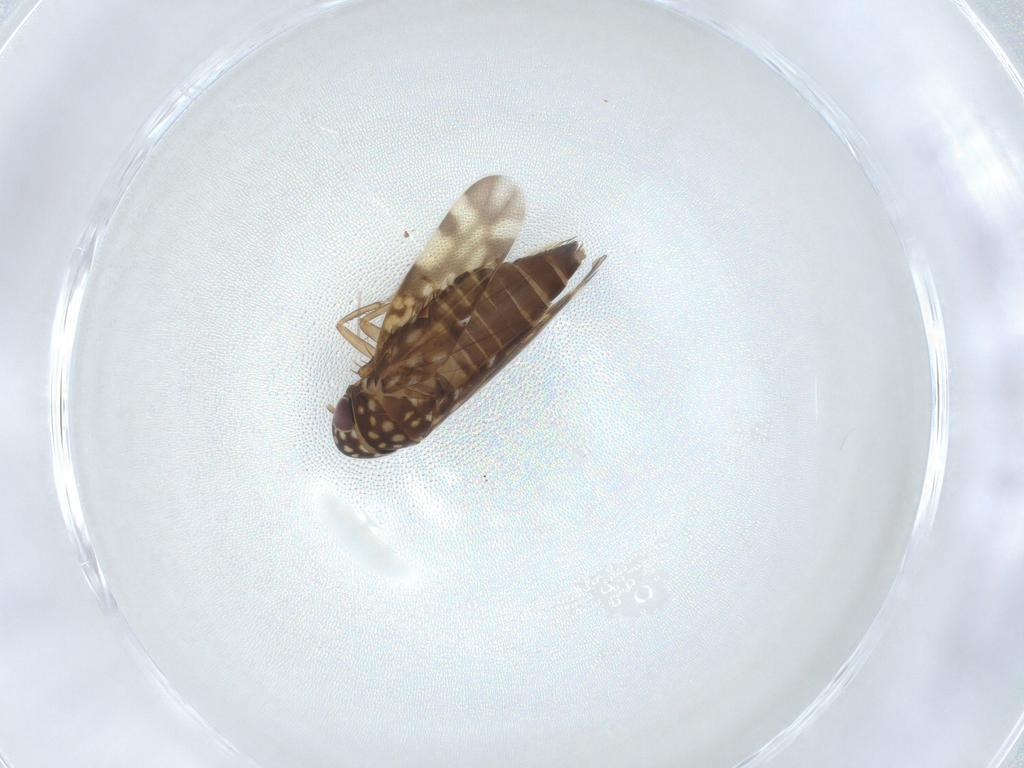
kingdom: Animalia
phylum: Arthropoda
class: Insecta
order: Hemiptera
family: Cicadellidae
